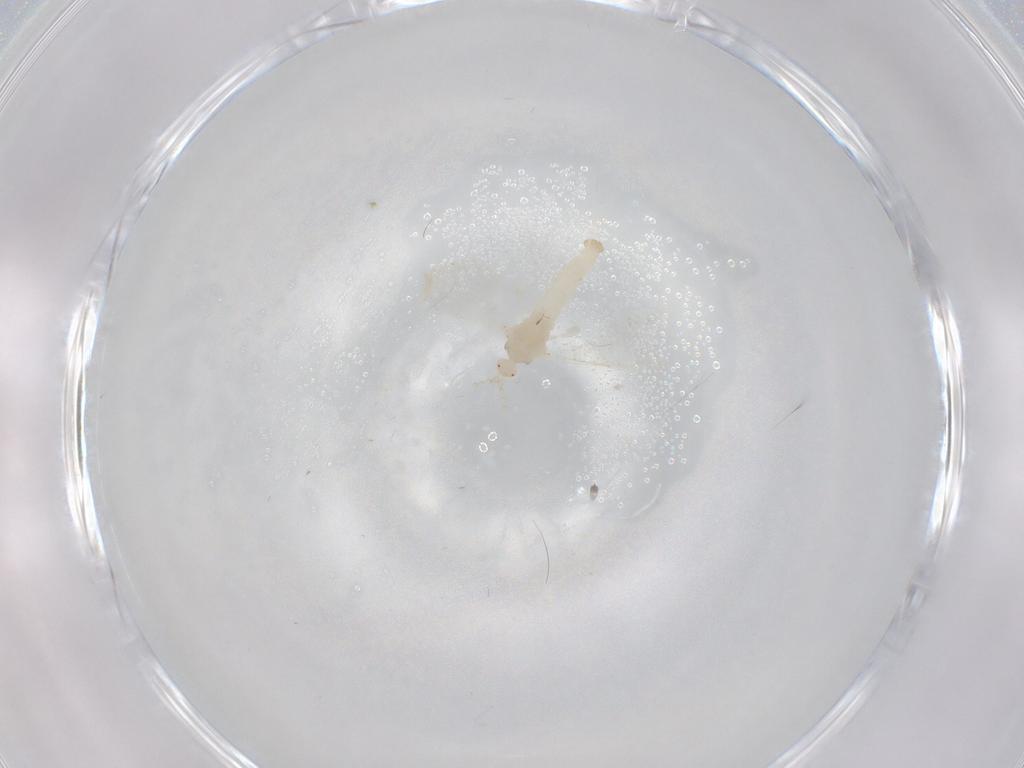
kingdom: Animalia
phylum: Arthropoda
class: Insecta
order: Diptera
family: Cecidomyiidae
